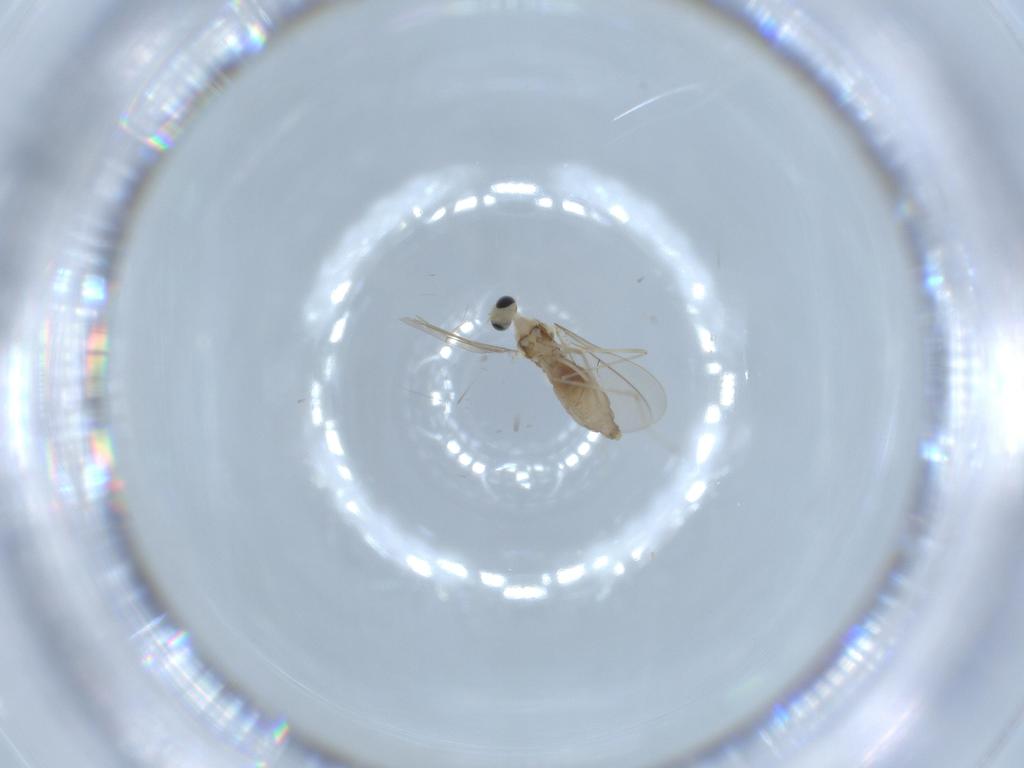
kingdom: Animalia
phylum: Arthropoda
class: Insecta
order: Diptera
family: Cecidomyiidae
